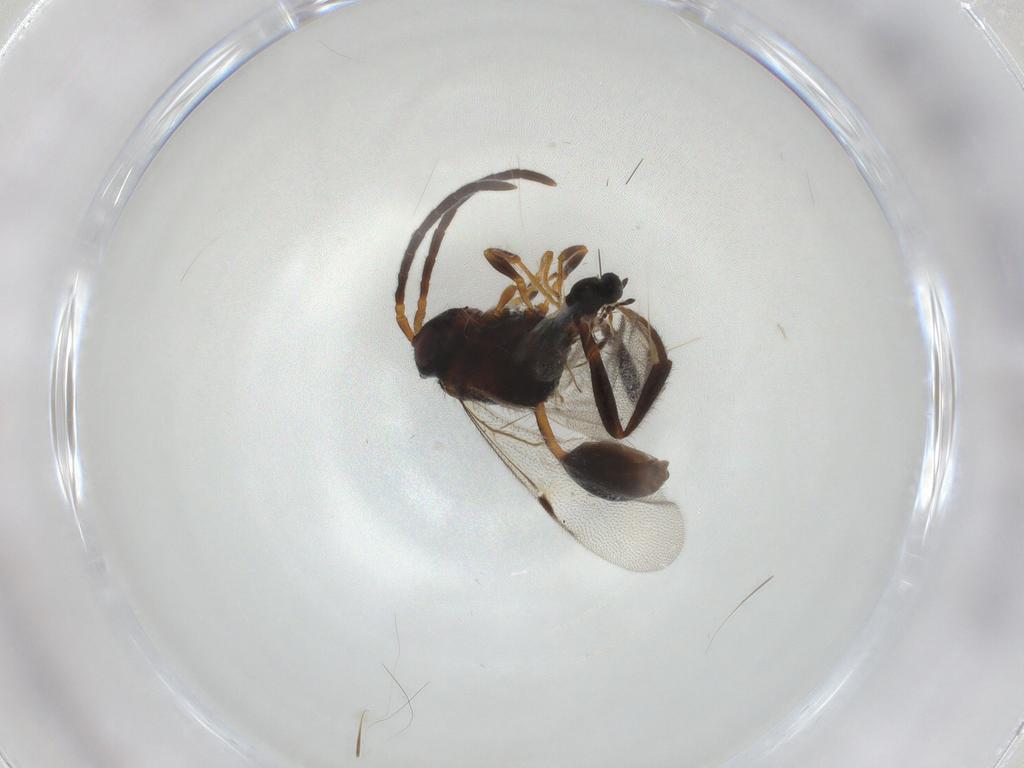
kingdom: Animalia
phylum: Arthropoda
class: Insecta
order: Hymenoptera
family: Evaniidae
